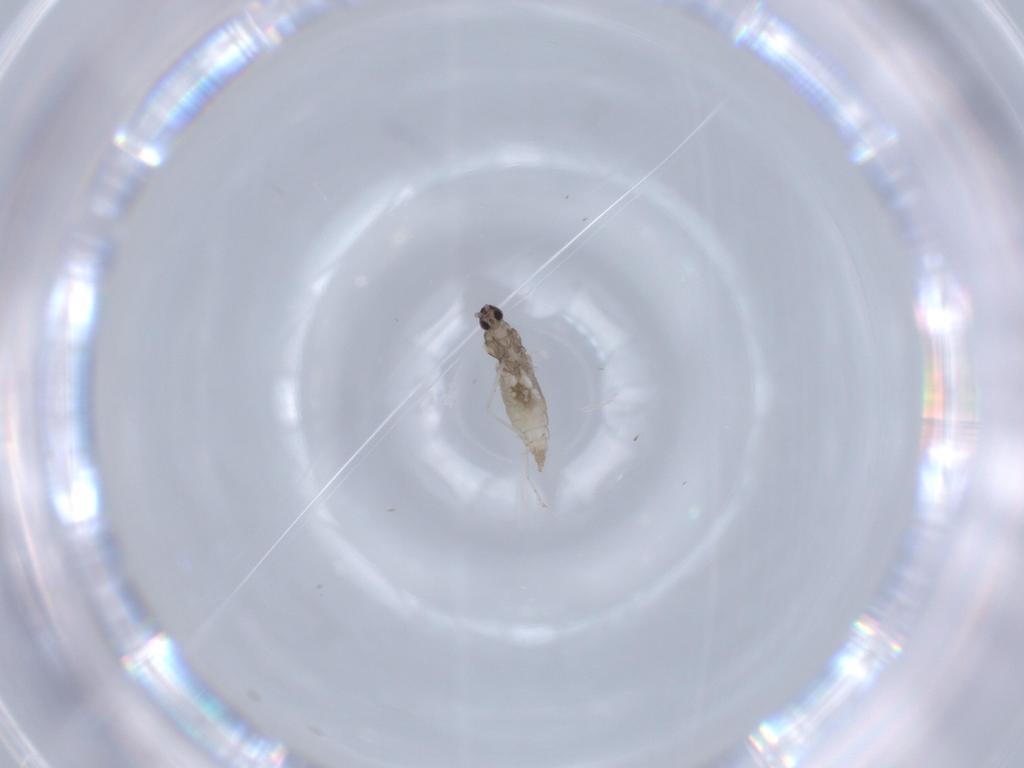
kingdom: Animalia
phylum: Arthropoda
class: Insecta
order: Diptera
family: Cecidomyiidae
